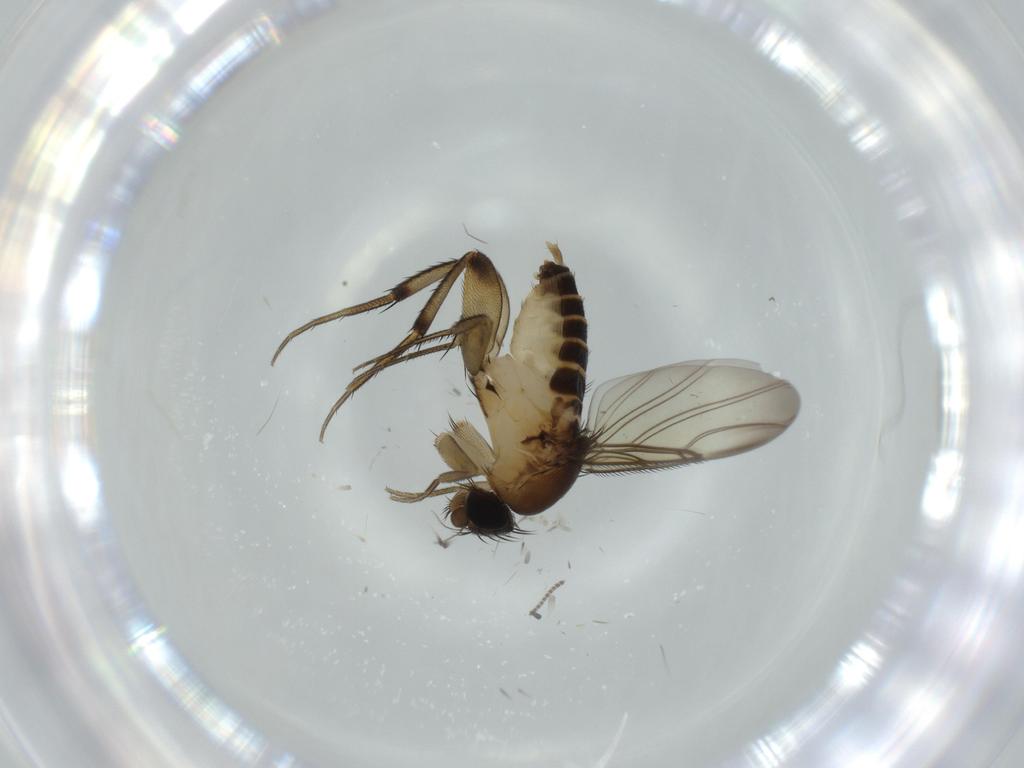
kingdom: Animalia
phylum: Arthropoda
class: Insecta
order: Diptera
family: Phoridae
